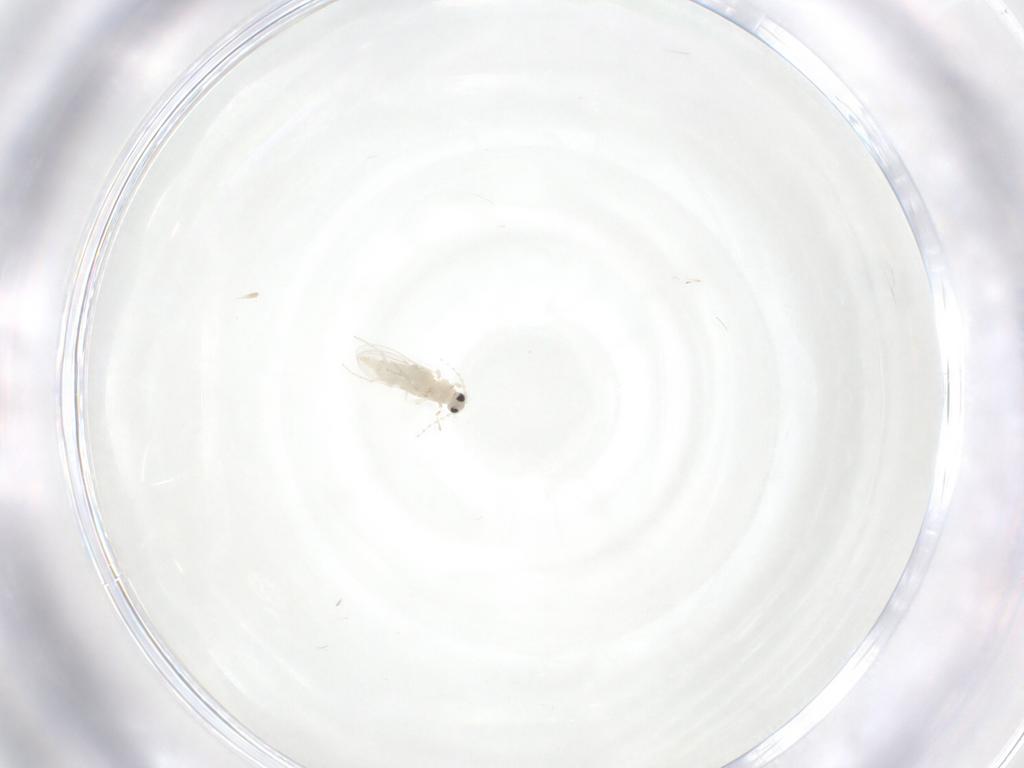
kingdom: Animalia
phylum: Arthropoda
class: Insecta
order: Diptera
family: Cecidomyiidae
